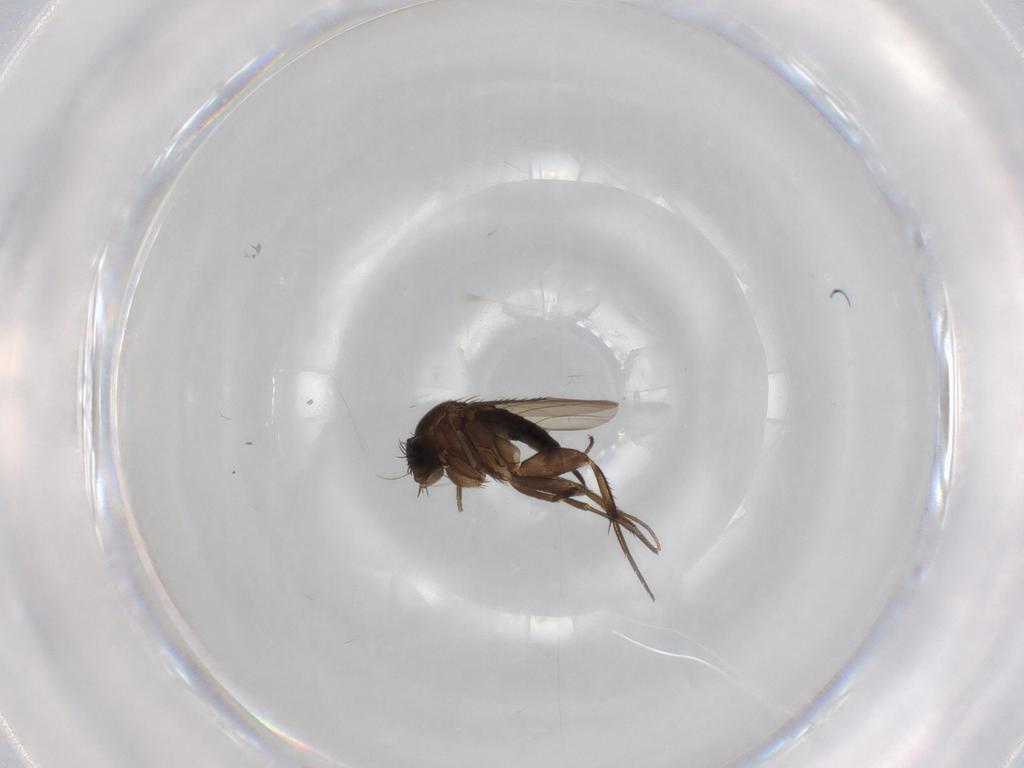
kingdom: Animalia
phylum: Arthropoda
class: Insecta
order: Diptera
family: Phoridae
